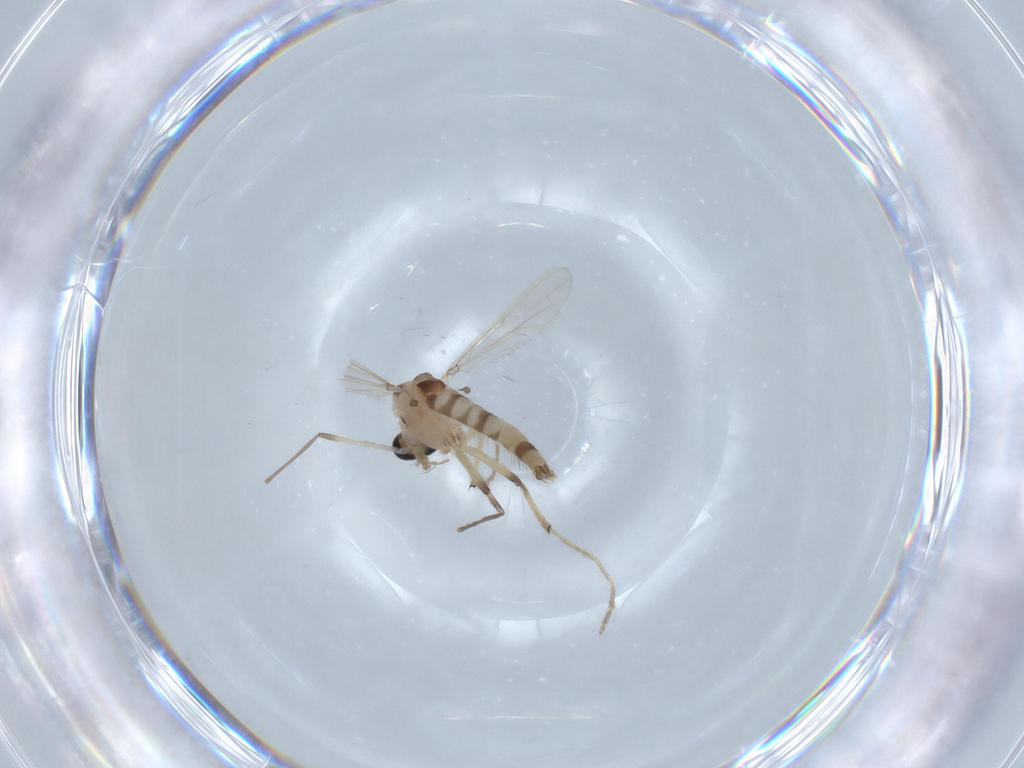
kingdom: Animalia
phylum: Arthropoda
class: Insecta
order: Diptera
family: Chironomidae
